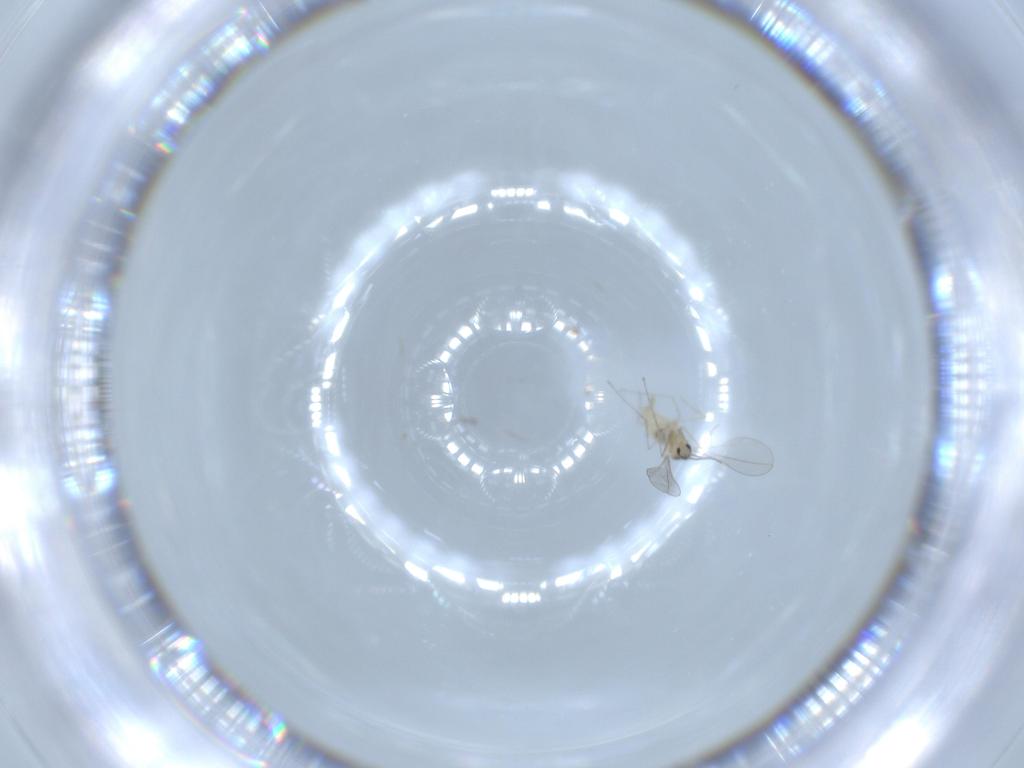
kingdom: Animalia
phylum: Arthropoda
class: Insecta
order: Diptera
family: Cecidomyiidae
